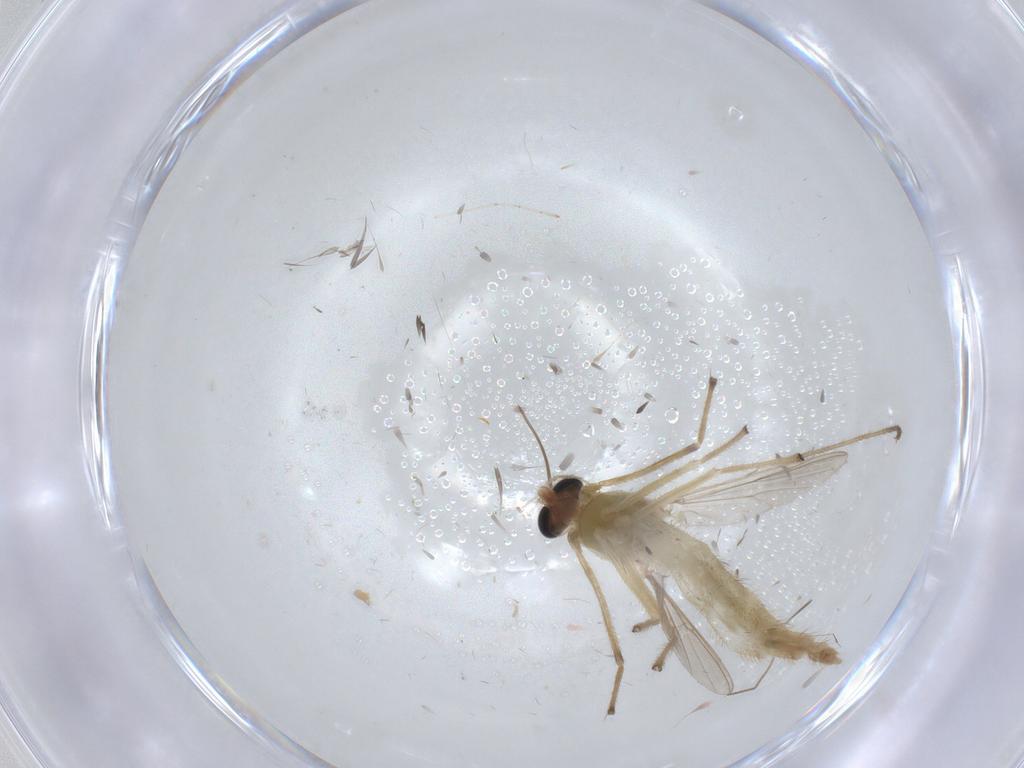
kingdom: Animalia
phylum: Arthropoda
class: Insecta
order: Diptera
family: Chironomidae
